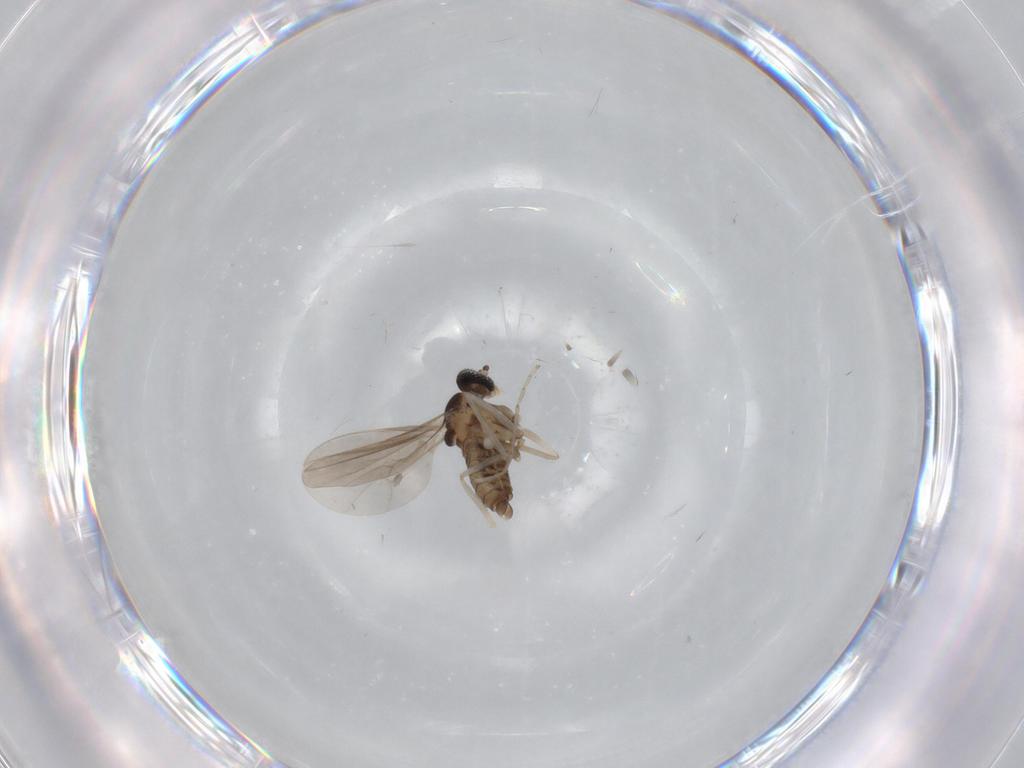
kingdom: Animalia
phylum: Arthropoda
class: Insecta
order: Diptera
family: Cecidomyiidae
